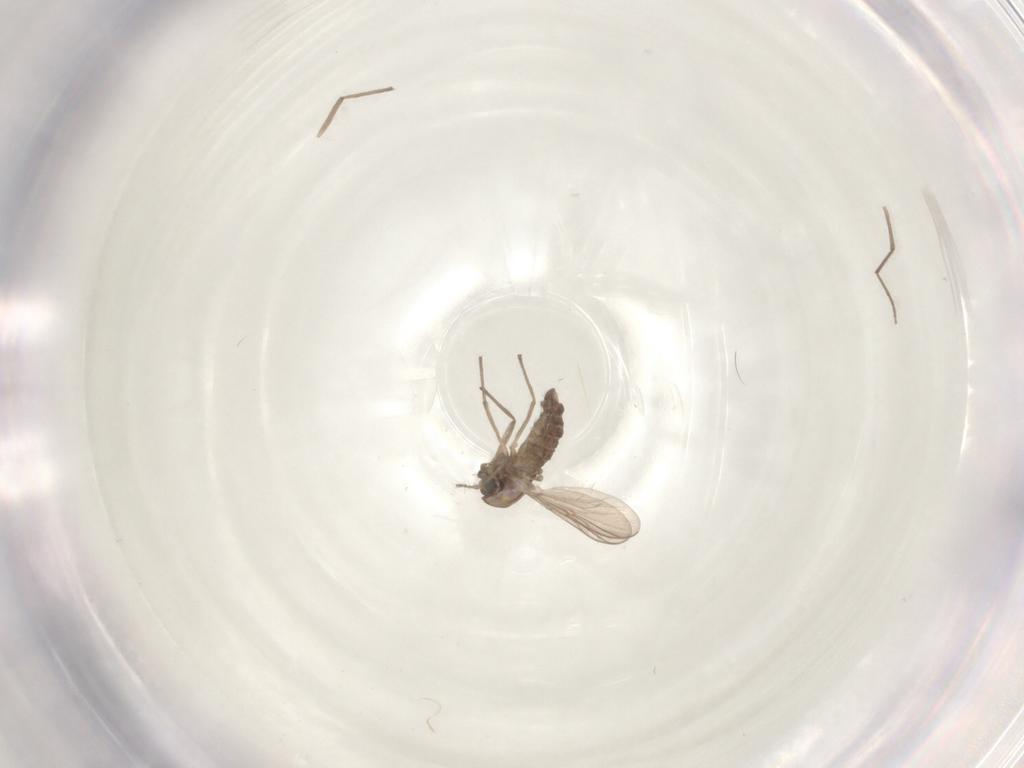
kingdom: Animalia
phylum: Arthropoda
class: Insecta
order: Diptera
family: Chironomidae
